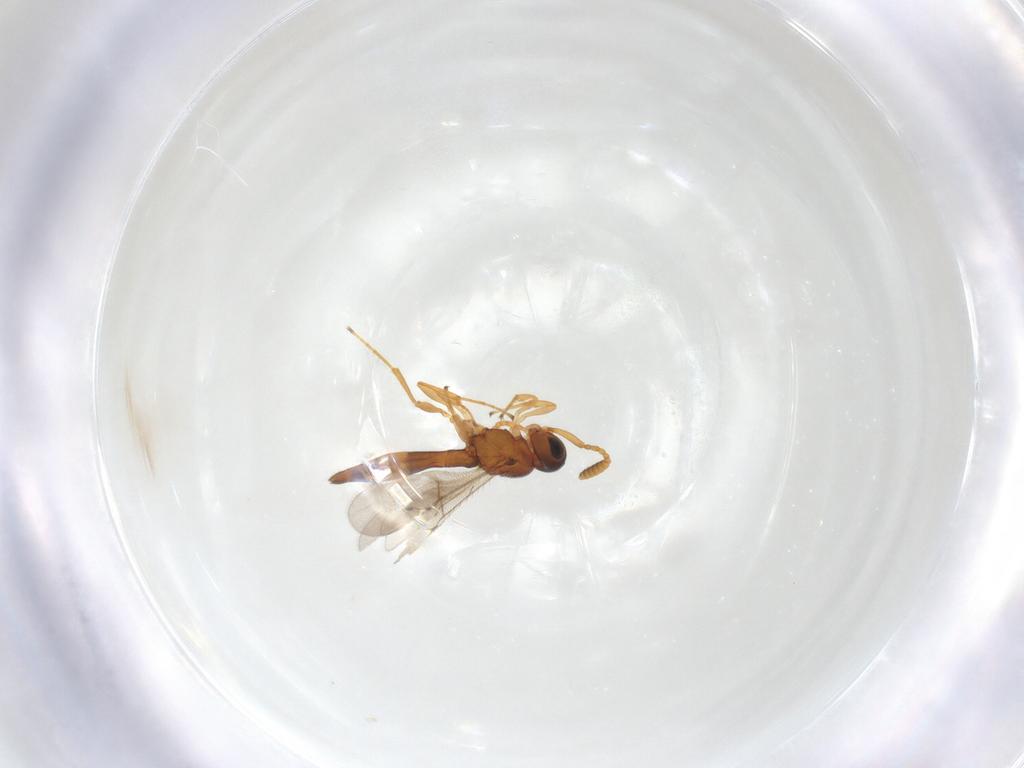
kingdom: Animalia
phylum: Arthropoda
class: Insecta
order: Hymenoptera
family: Scelionidae
